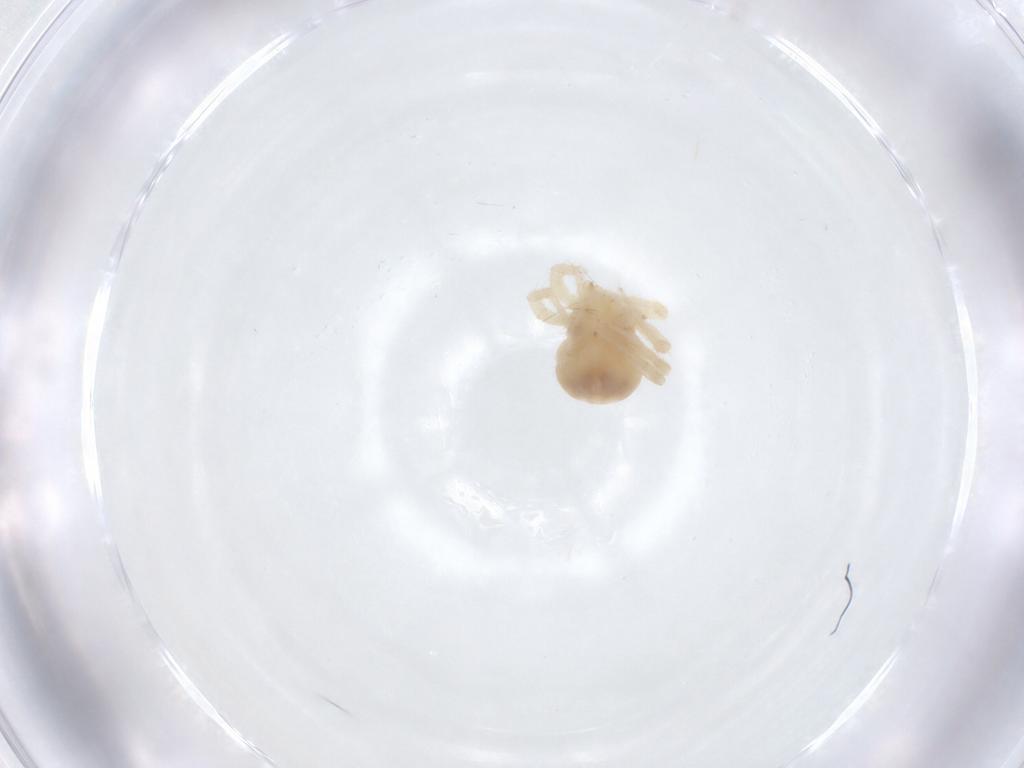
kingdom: Animalia
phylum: Arthropoda
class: Arachnida
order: Trombidiformes
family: Anystidae
